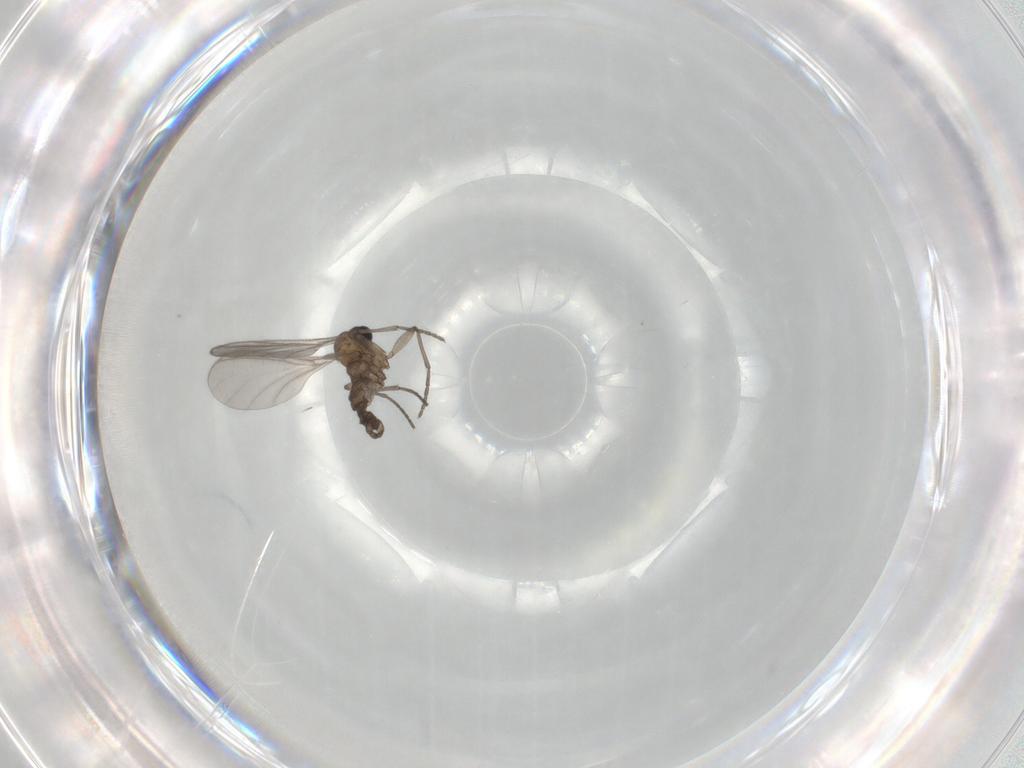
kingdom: Animalia
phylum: Arthropoda
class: Insecta
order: Diptera
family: Sciaridae
